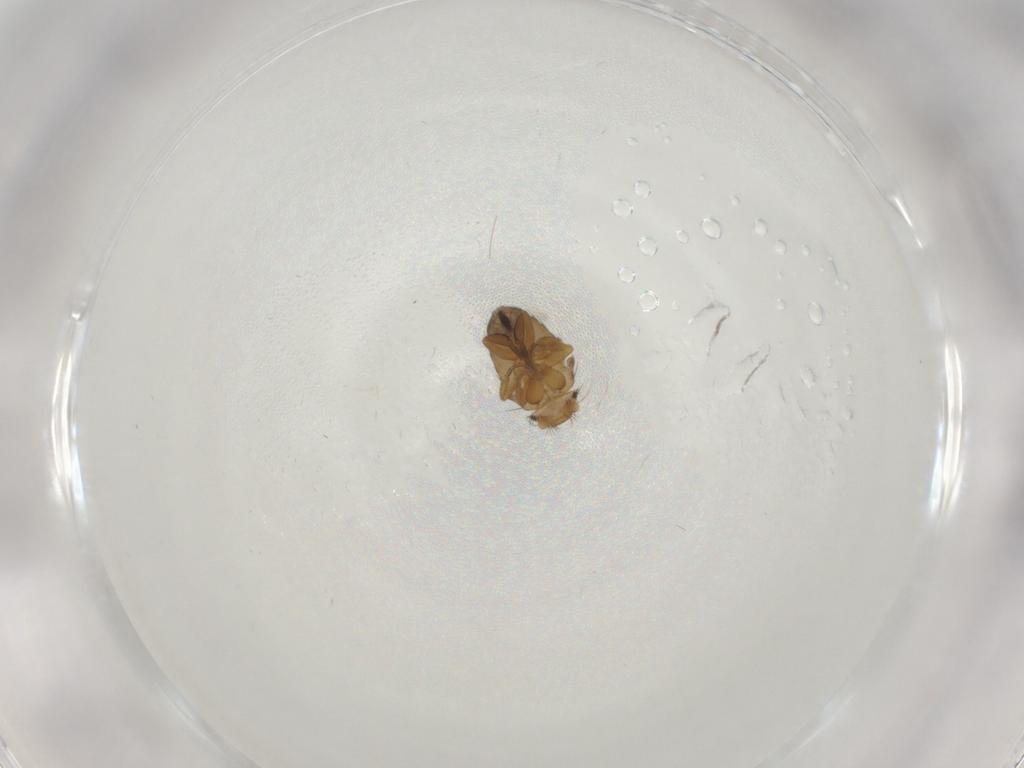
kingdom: Animalia
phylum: Arthropoda
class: Insecta
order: Diptera
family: Phoridae
